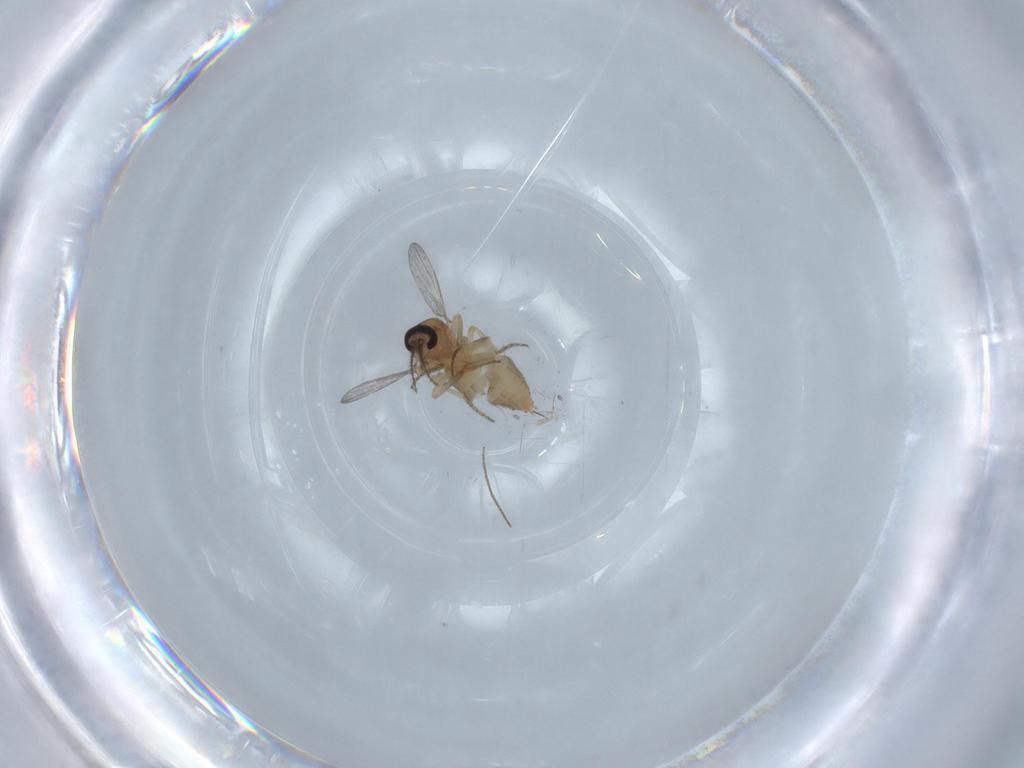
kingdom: Animalia
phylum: Arthropoda
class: Insecta
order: Diptera
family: Ceratopogonidae
